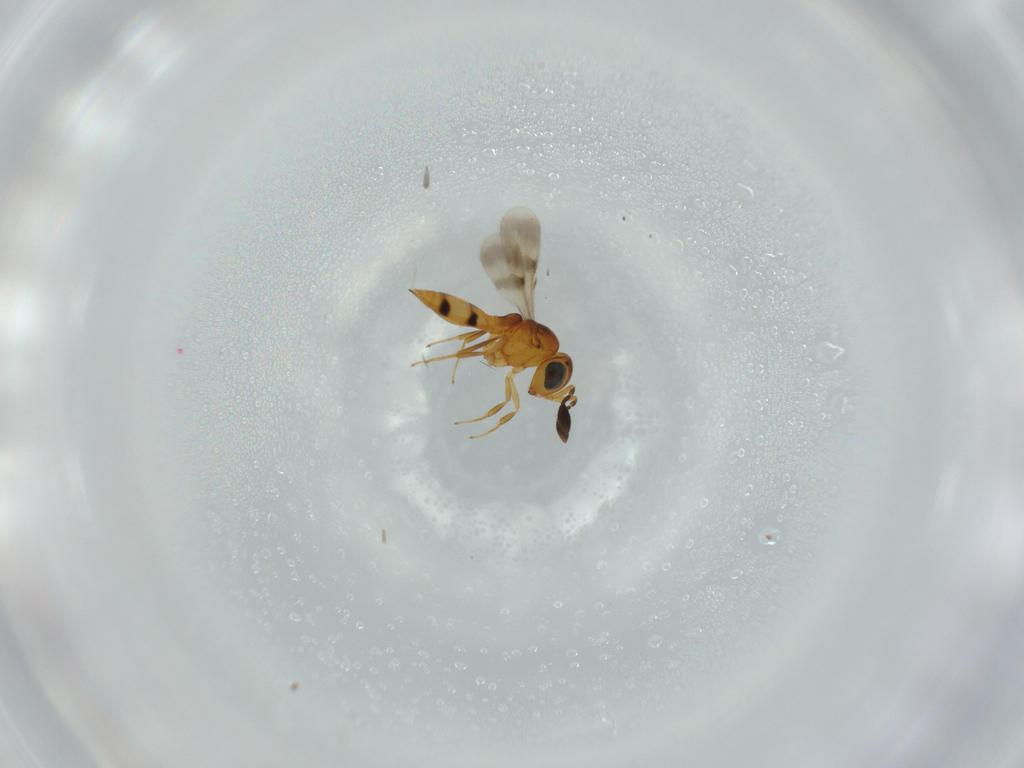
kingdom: Animalia
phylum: Arthropoda
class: Insecta
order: Hymenoptera
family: Scelionidae
